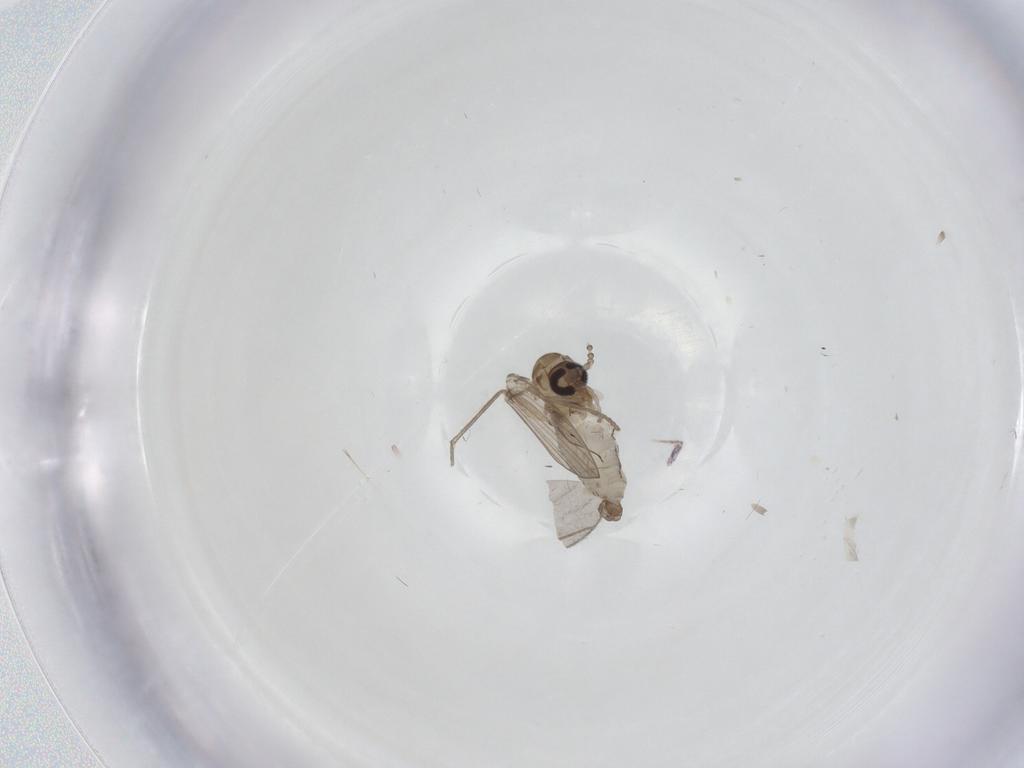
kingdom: Animalia
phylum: Arthropoda
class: Insecta
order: Diptera
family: Psychodidae
